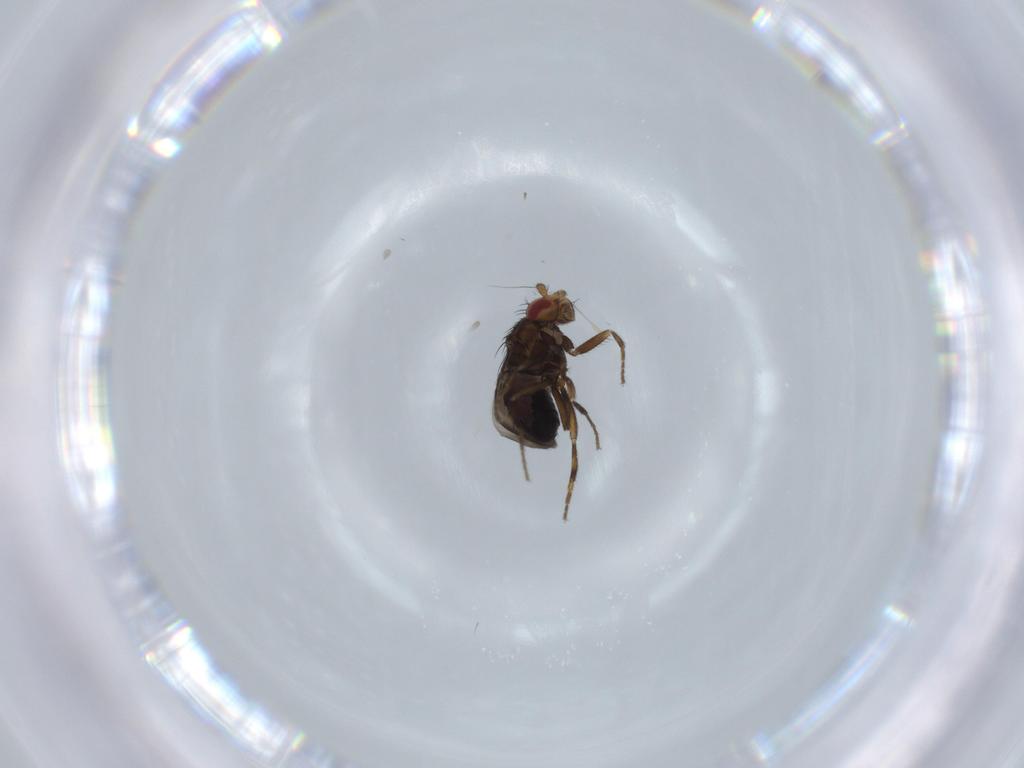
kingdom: Animalia
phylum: Arthropoda
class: Insecta
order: Diptera
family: Sphaeroceridae
